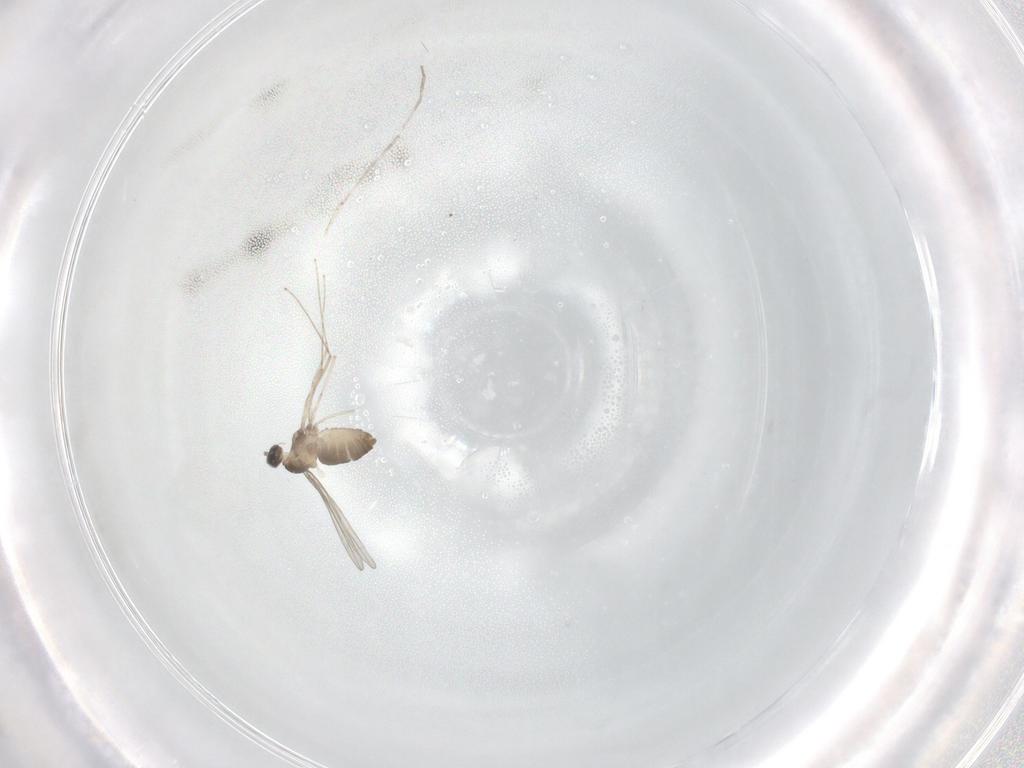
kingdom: Animalia
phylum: Arthropoda
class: Insecta
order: Diptera
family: Cecidomyiidae
